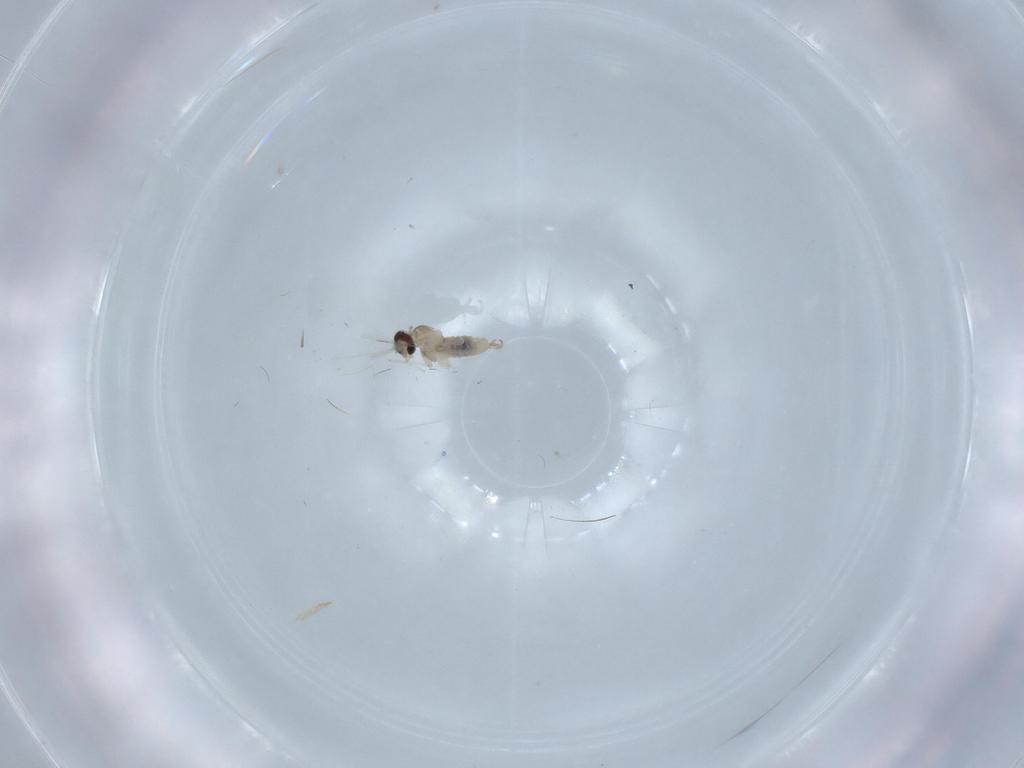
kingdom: Animalia
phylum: Arthropoda
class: Insecta
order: Diptera
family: Cecidomyiidae
